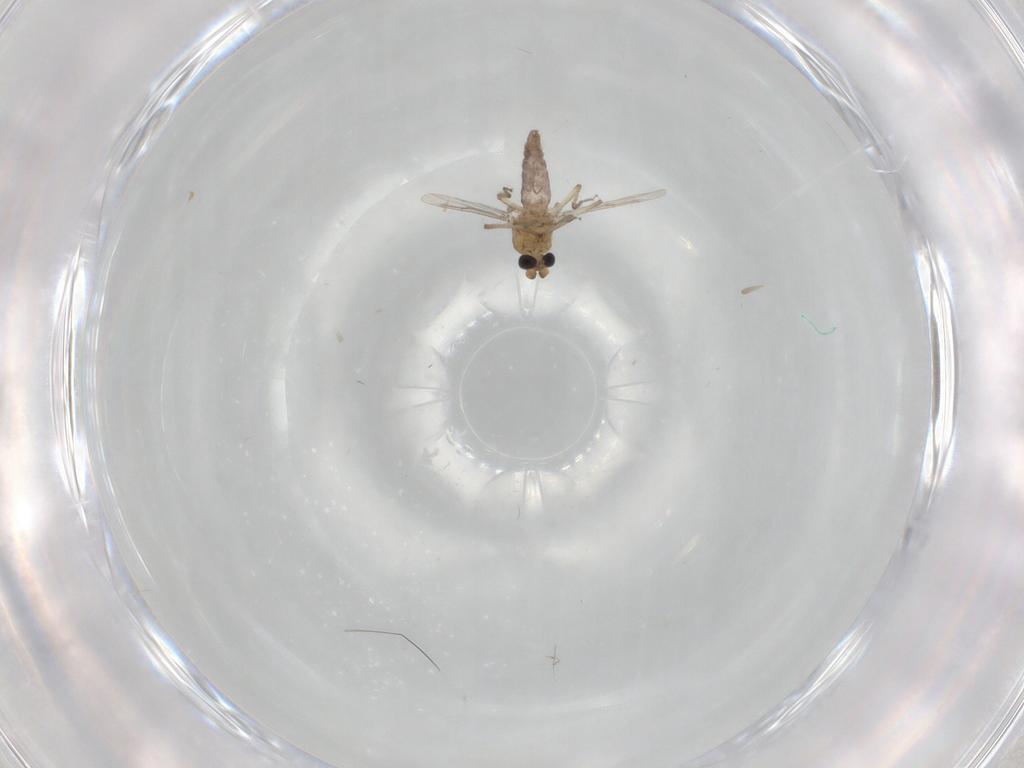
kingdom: Animalia
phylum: Arthropoda
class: Insecta
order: Diptera
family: Ceratopogonidae
